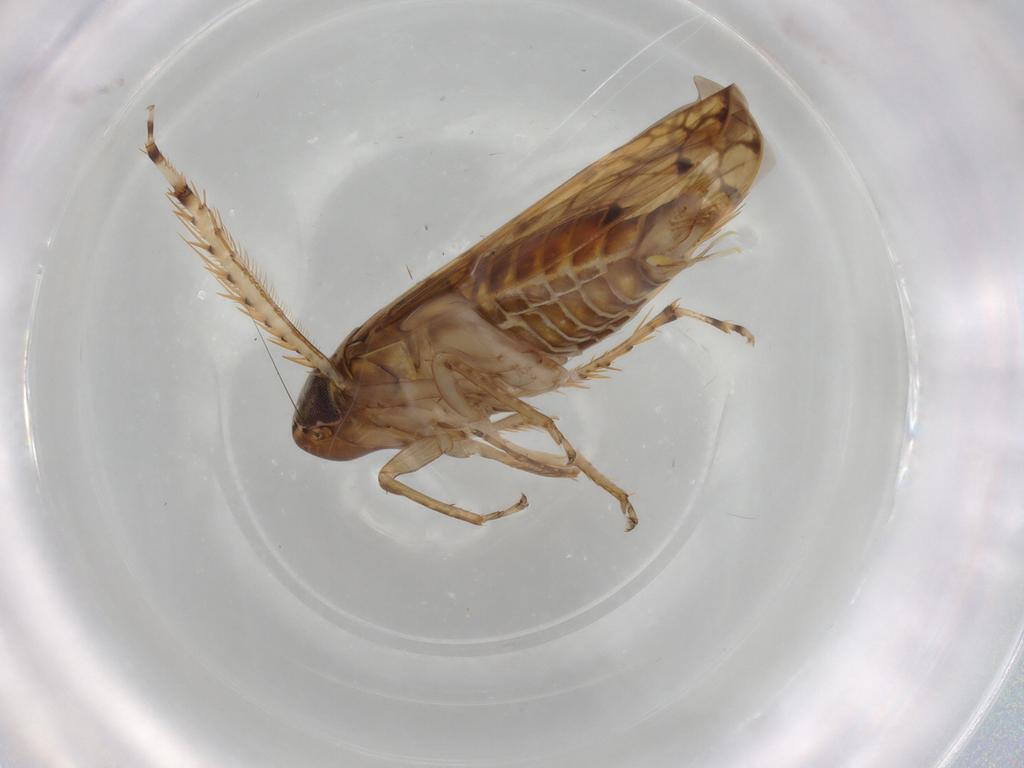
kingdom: Animalia
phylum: Arthropoda
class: Insecta
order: Hemiptera
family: Cicadellidae
